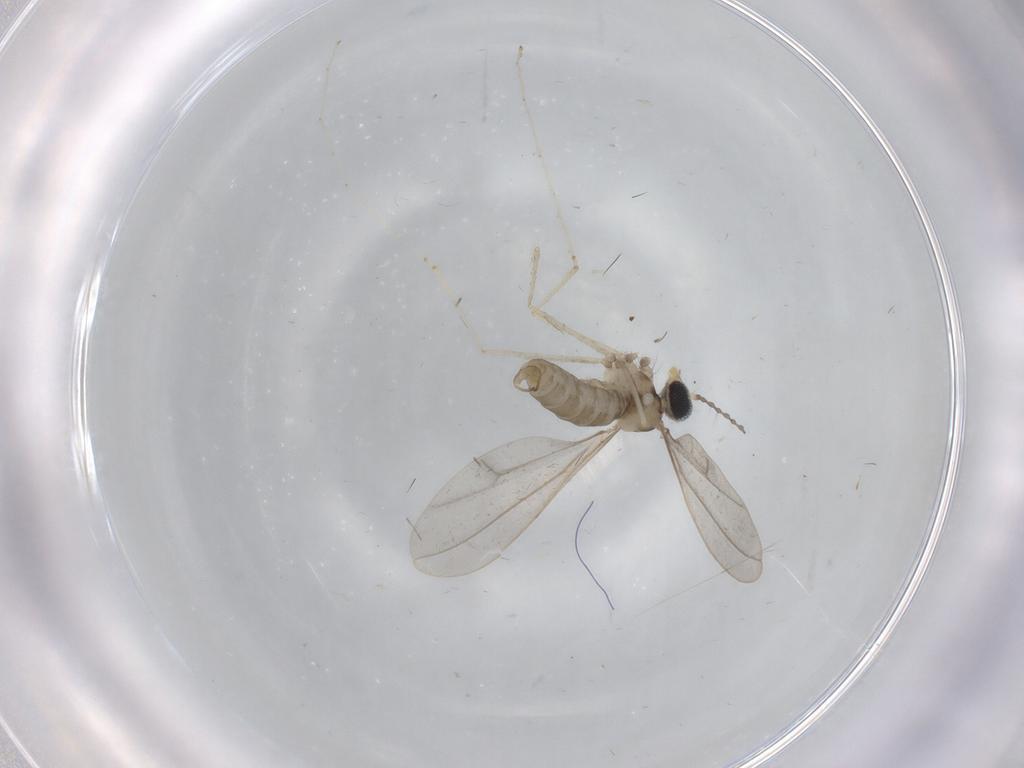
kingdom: Animalia
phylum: Arthropoda
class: Insecta
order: Diptera
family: Cecidomyiidae
